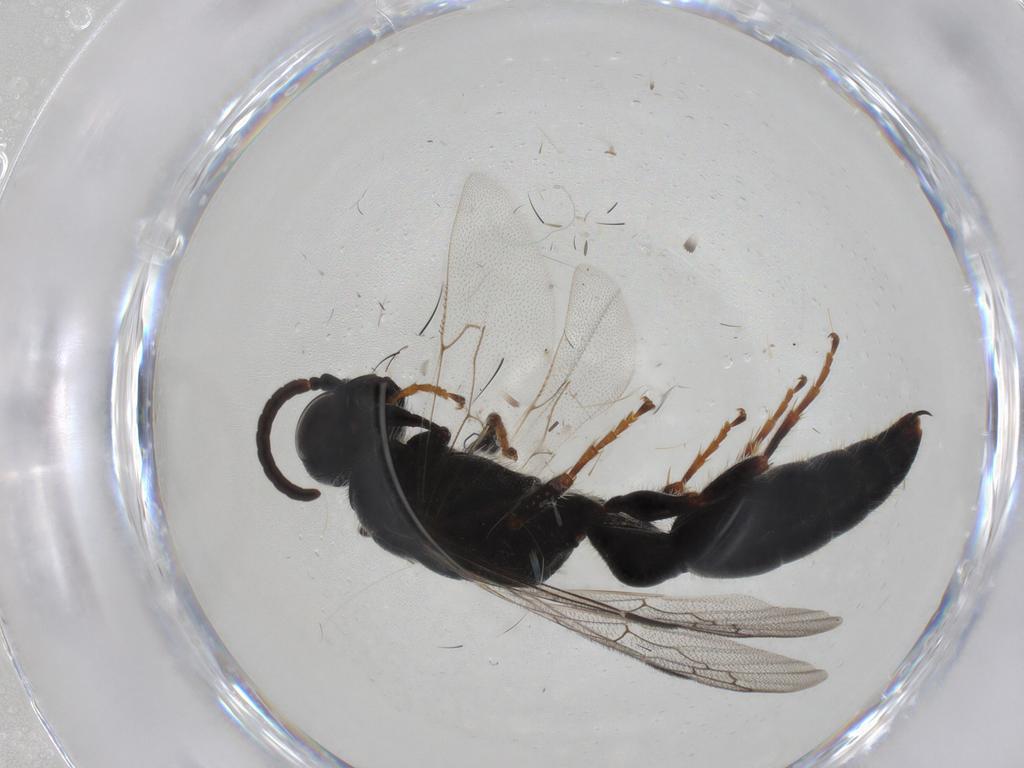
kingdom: Animalia
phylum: Arthropoda
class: Insecta
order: Hymenoptera
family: Tiphiidae
